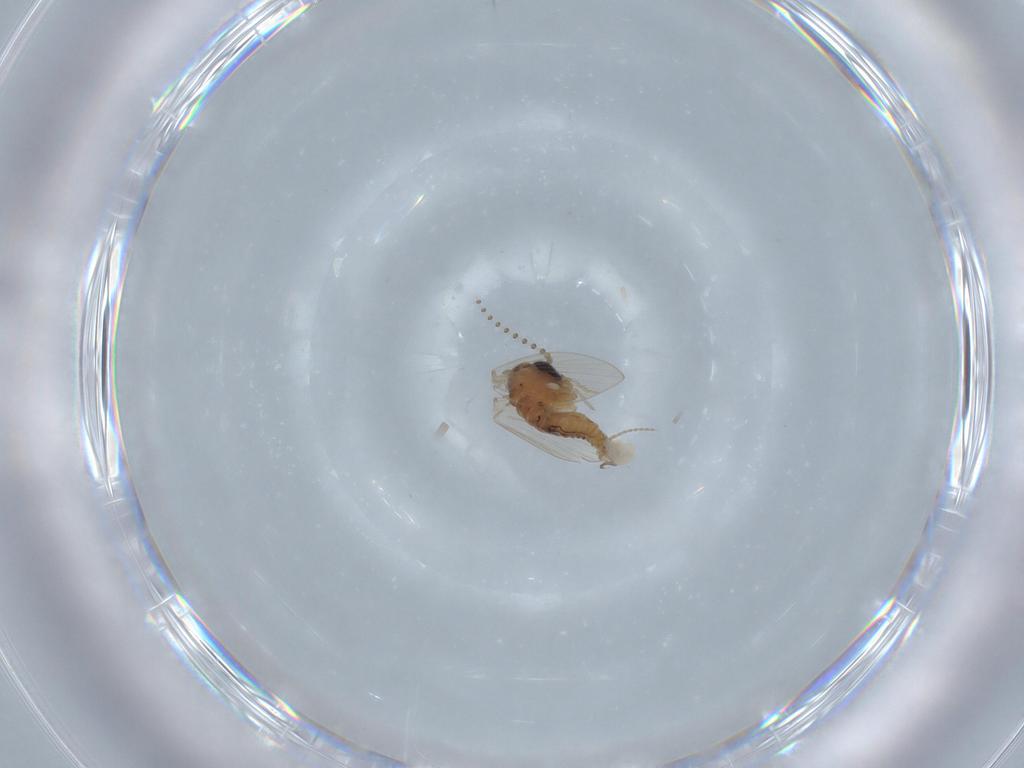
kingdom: Animalia
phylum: Arthropoda
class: Insecta
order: Diptera
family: Psychodidae
